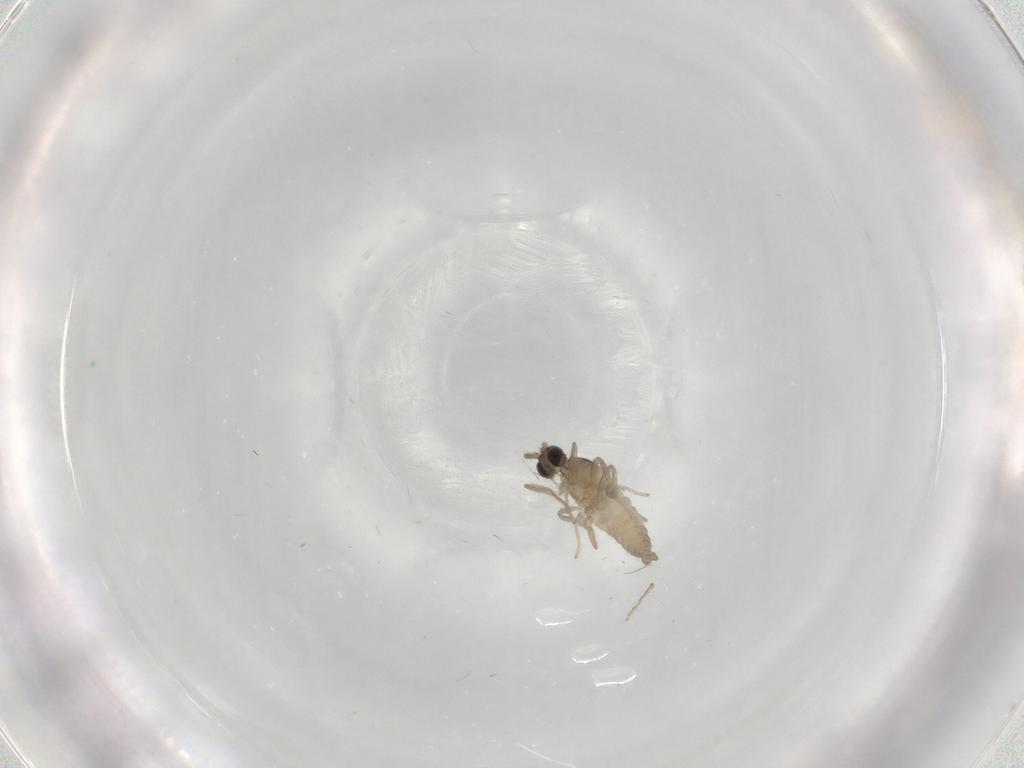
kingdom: Animalia
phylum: Arthropoda
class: Insecta
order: Diptera
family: Cecidomyiidae
